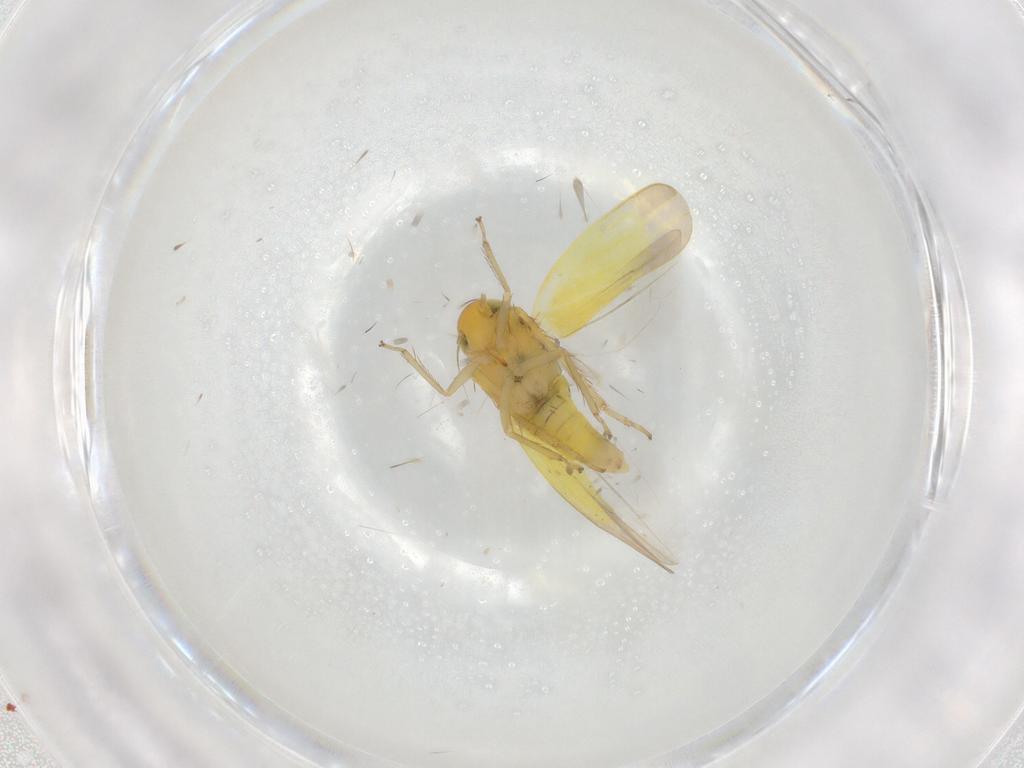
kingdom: Animalia
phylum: Arthropoda
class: Insecta
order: Hemiptera
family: Cicadellidae
